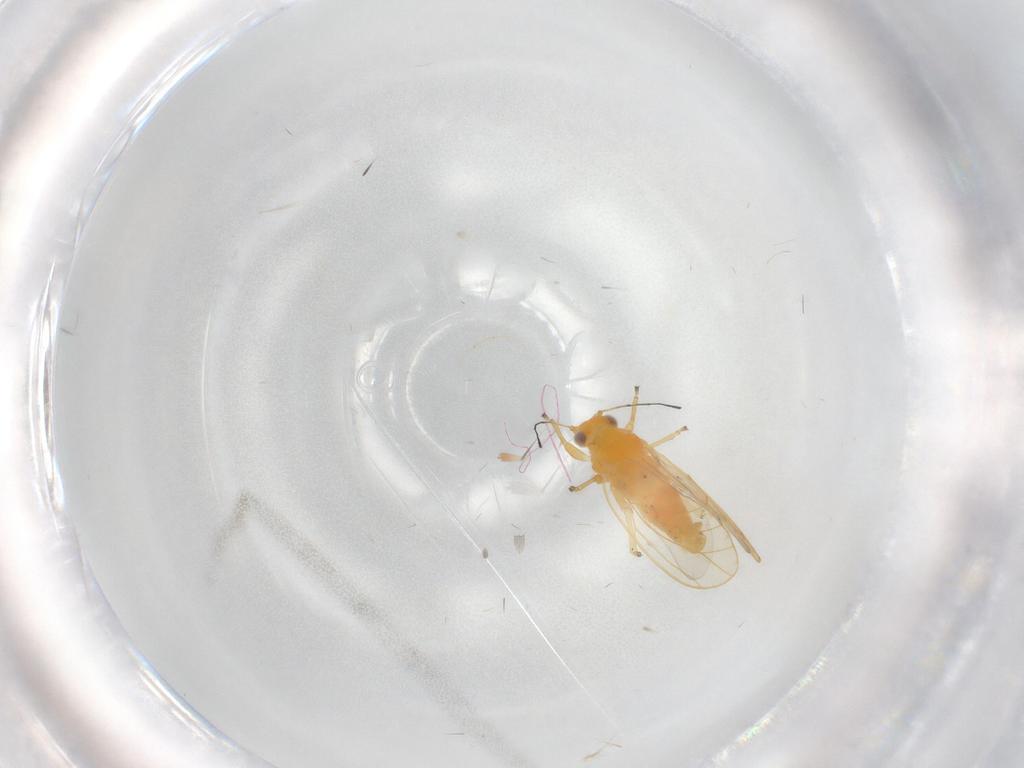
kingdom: Animalia
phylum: Arthropoda
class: Insecta
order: Hemiptera
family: Triozidae
